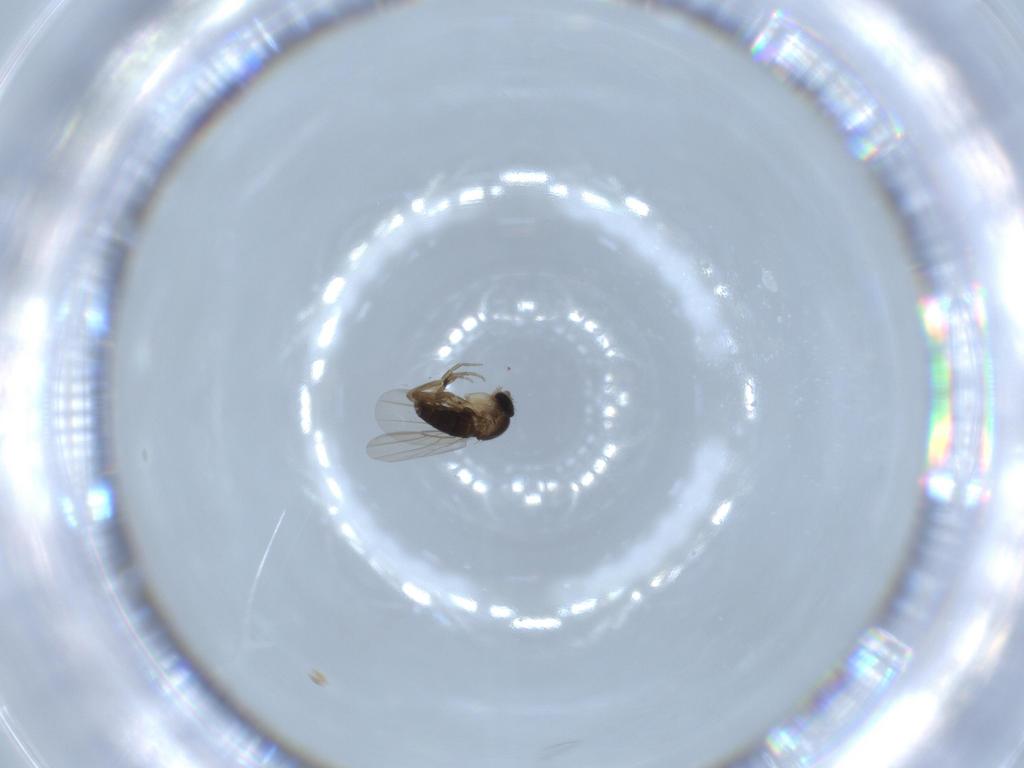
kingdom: Animalia
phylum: Arthropoda
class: Insecta
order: Diptera
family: Phoridae
